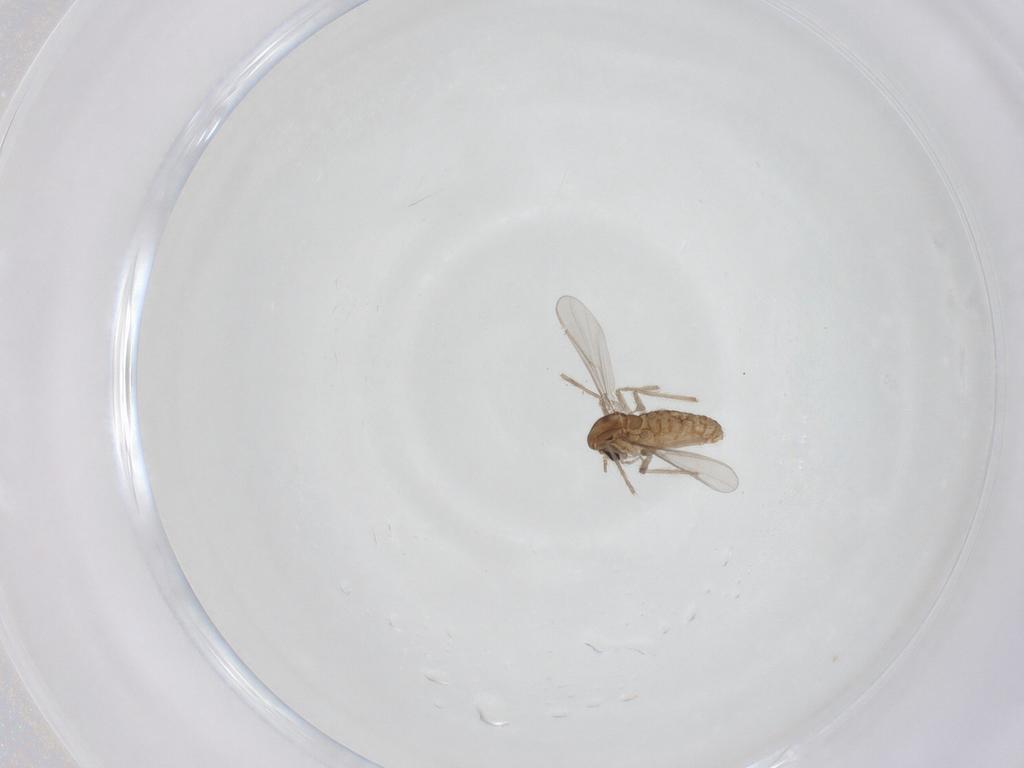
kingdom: Animalia
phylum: Arthropoda
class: Insecta
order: Diptera
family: Chironomidae
